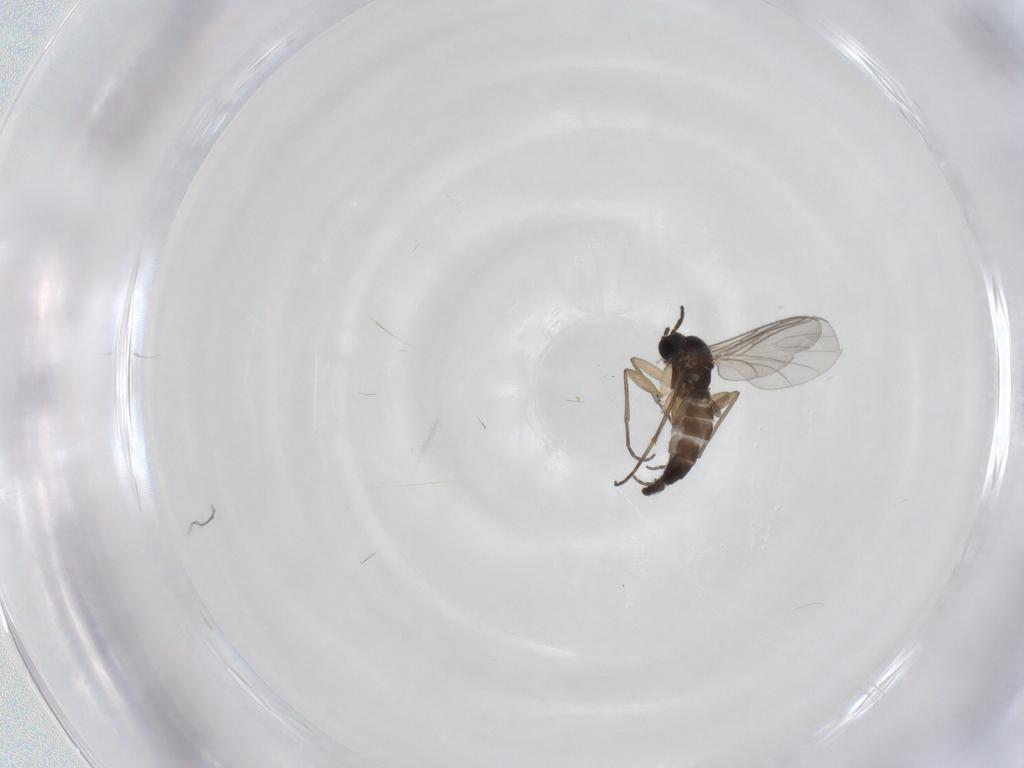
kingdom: Animalia
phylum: Arthropoda
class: Insecta
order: Diptera
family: Sciaridae
